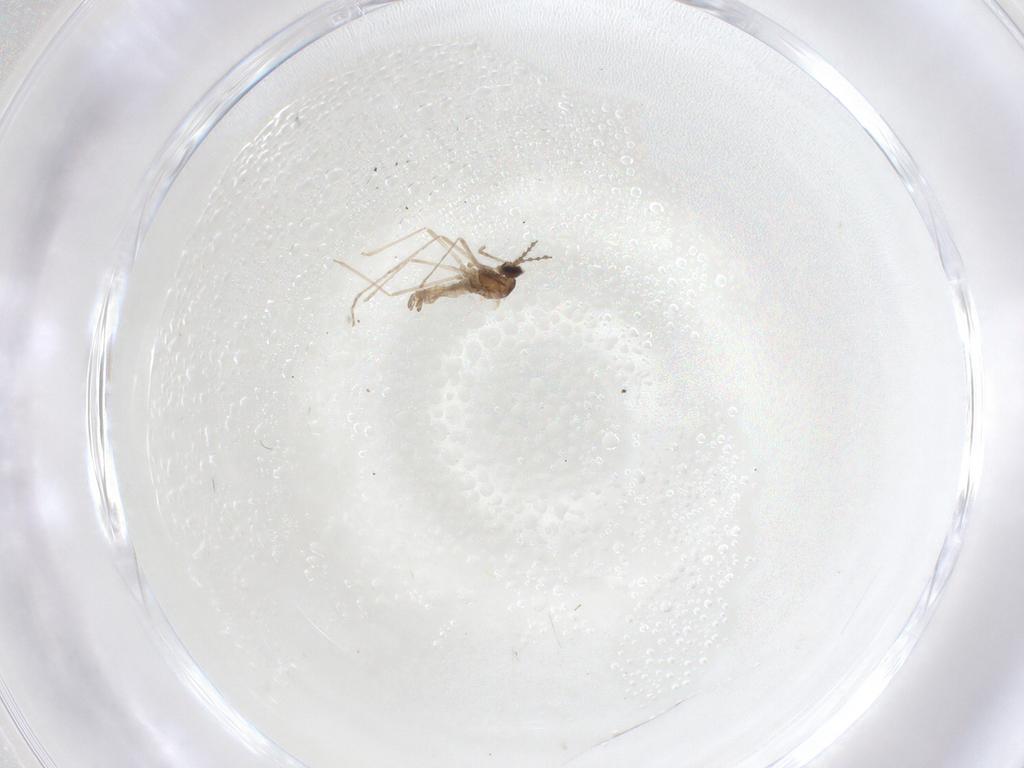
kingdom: Animalia
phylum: Arthropoda
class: Insecta
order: Diptera
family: Cecidomyiidae
